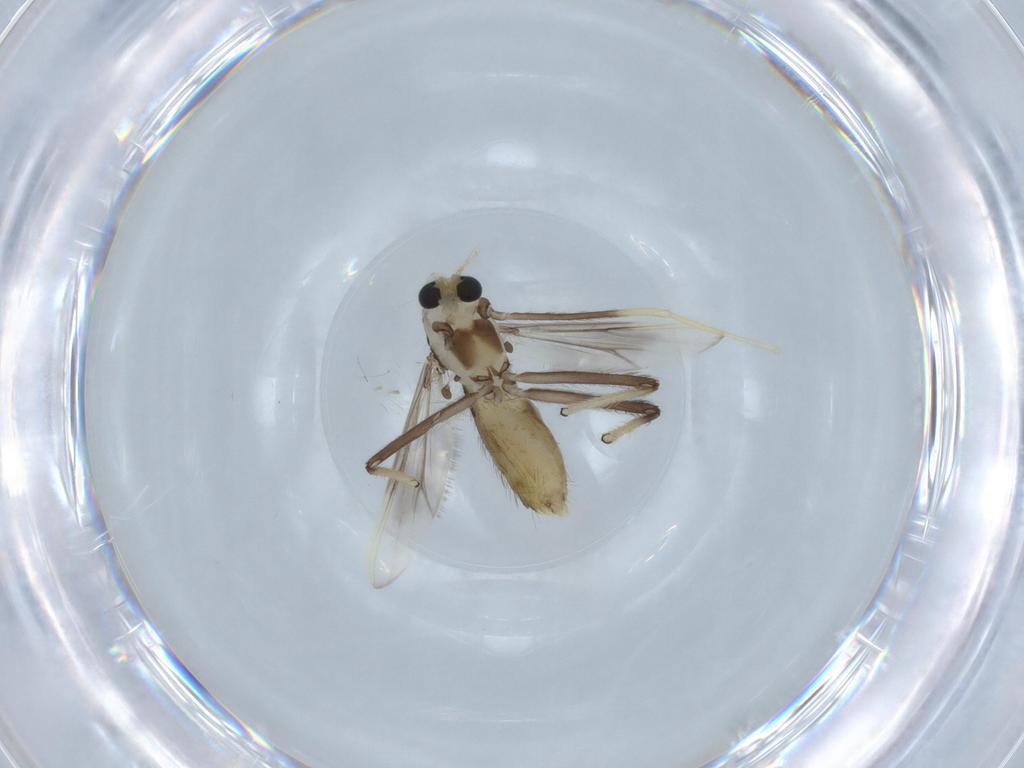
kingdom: Animalia
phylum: Arthropoda
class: Insecta
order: Diptera
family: Chironomidae
